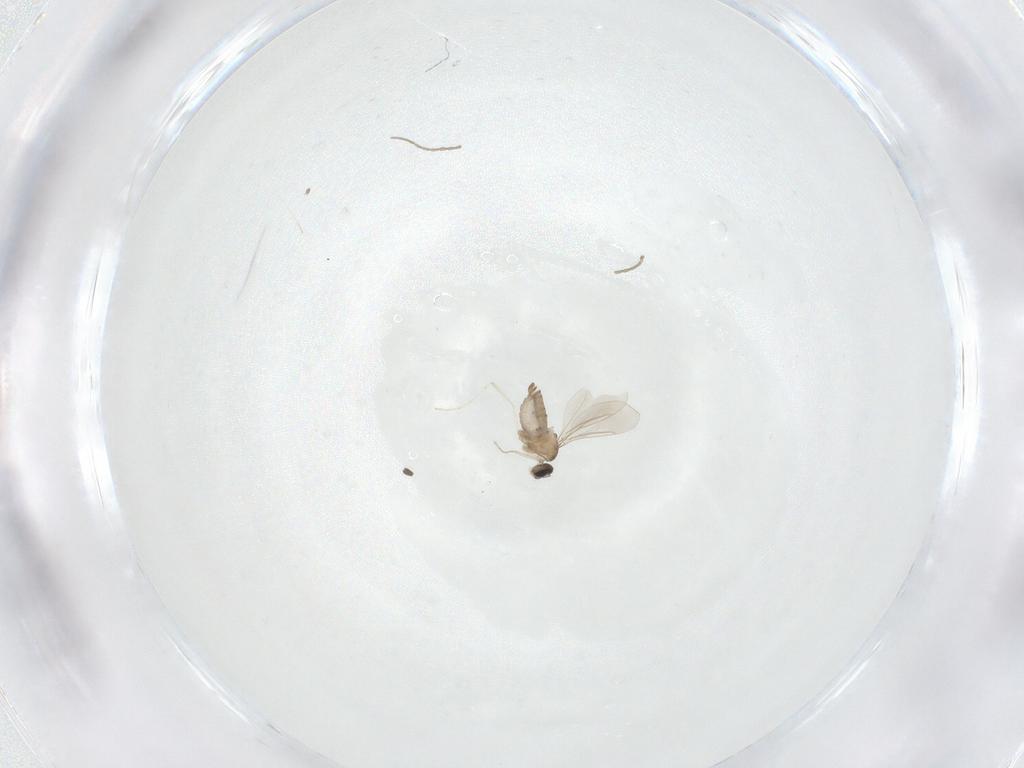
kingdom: Animalia
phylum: Arthropoda
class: Insecta
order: Diptera
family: Cecidomyiidae
